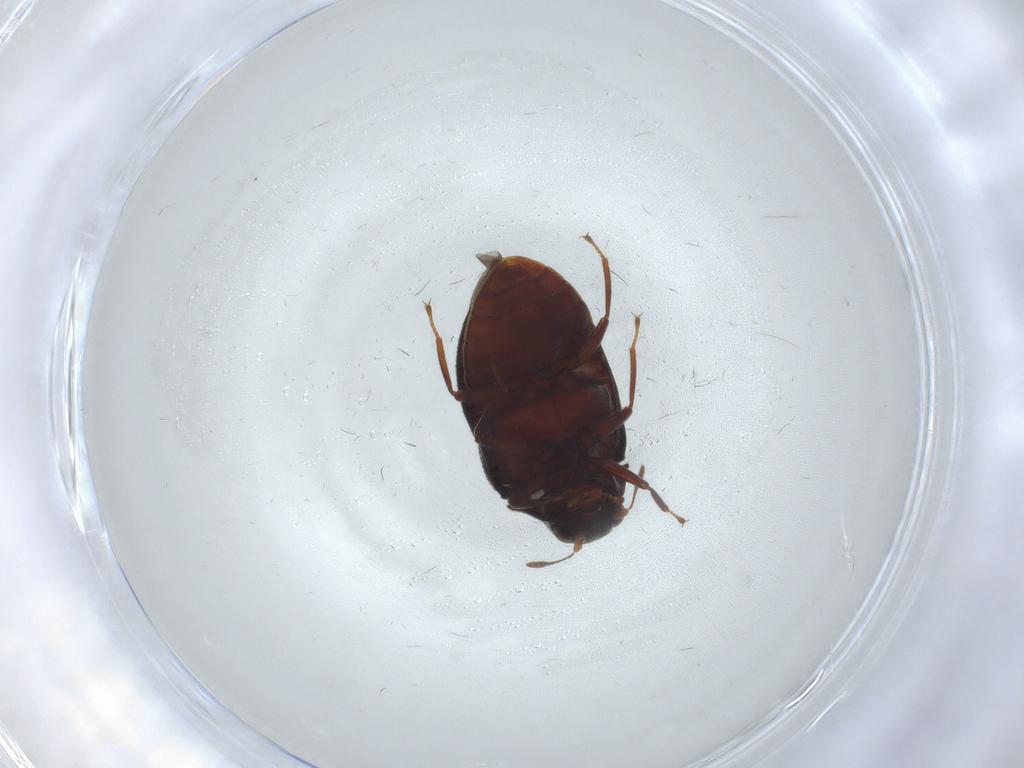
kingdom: Animalia
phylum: Arthropoda
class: Insecta
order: Coleoptera
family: Limnichidae
